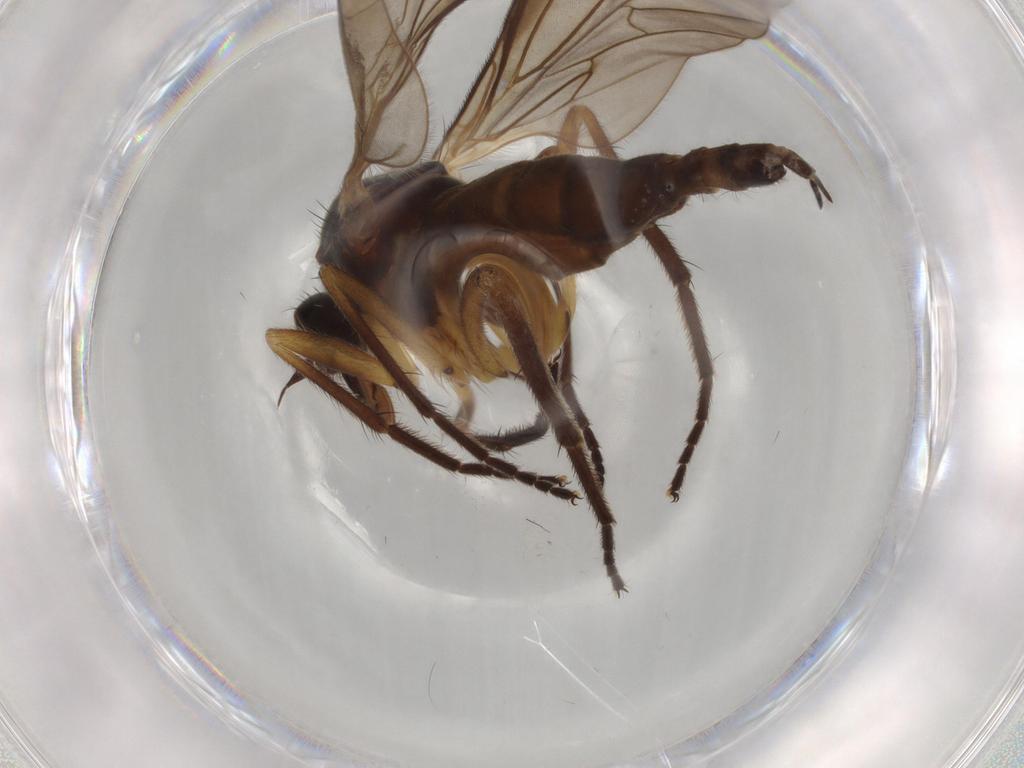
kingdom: Animalia
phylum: Arthropoda
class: Insecta
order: Diptera
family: Empididae
